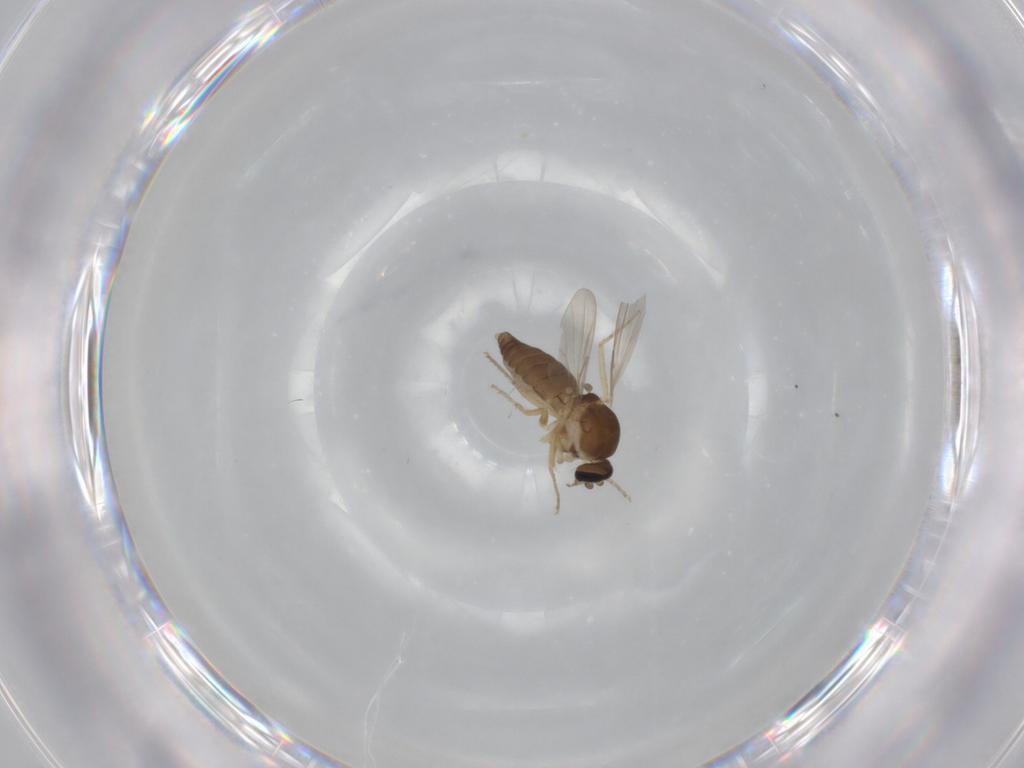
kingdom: Animalia
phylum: Arthropoda
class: Insecta
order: Diptera
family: Ceratopogonidae
